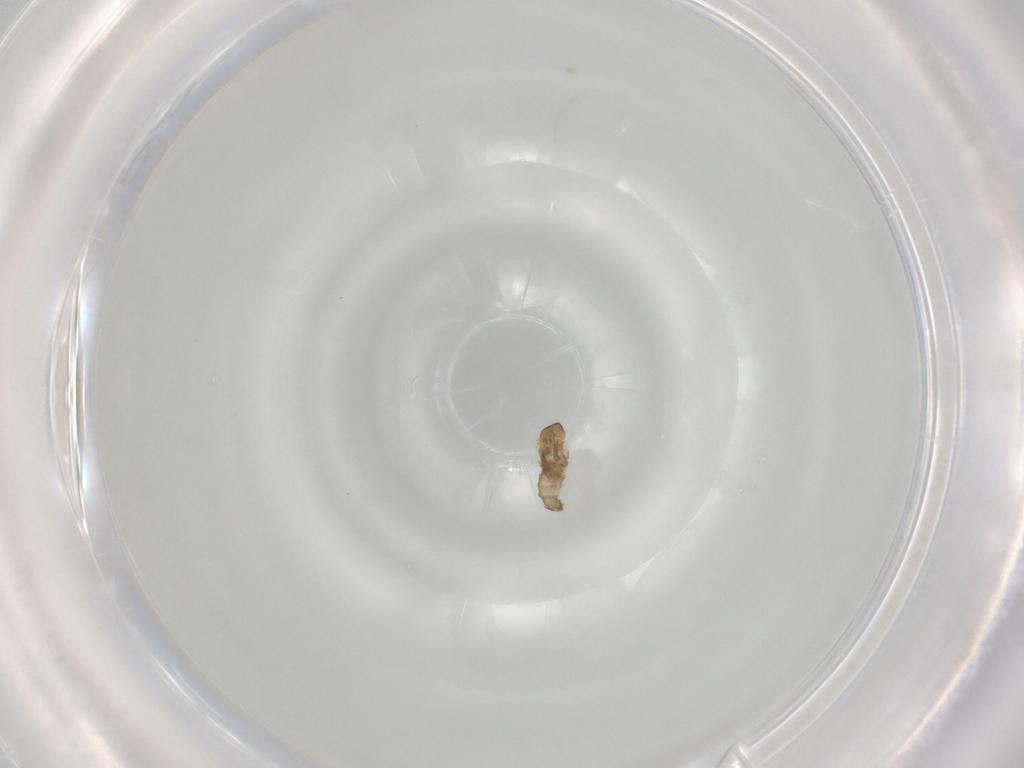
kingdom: Animalia
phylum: Arthropoda
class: Insecta
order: Diptera
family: Cecidomyiidae
